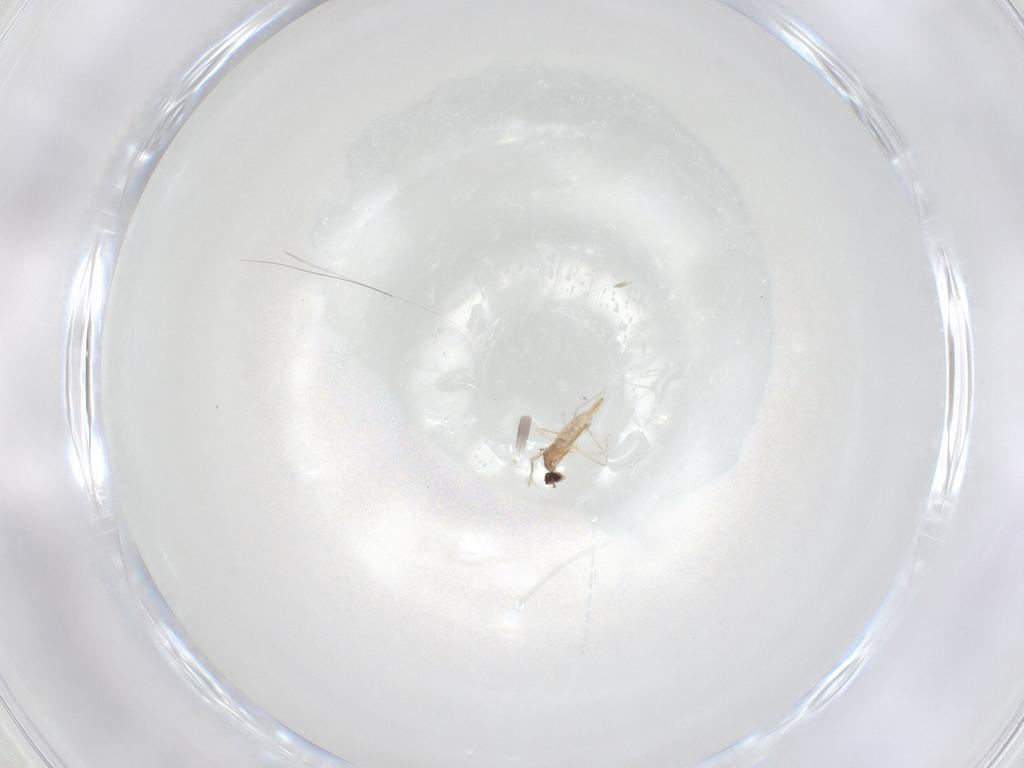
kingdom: Animalia
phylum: Arthropoda
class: Insecta
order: Diptera
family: Cecidomyiidae
